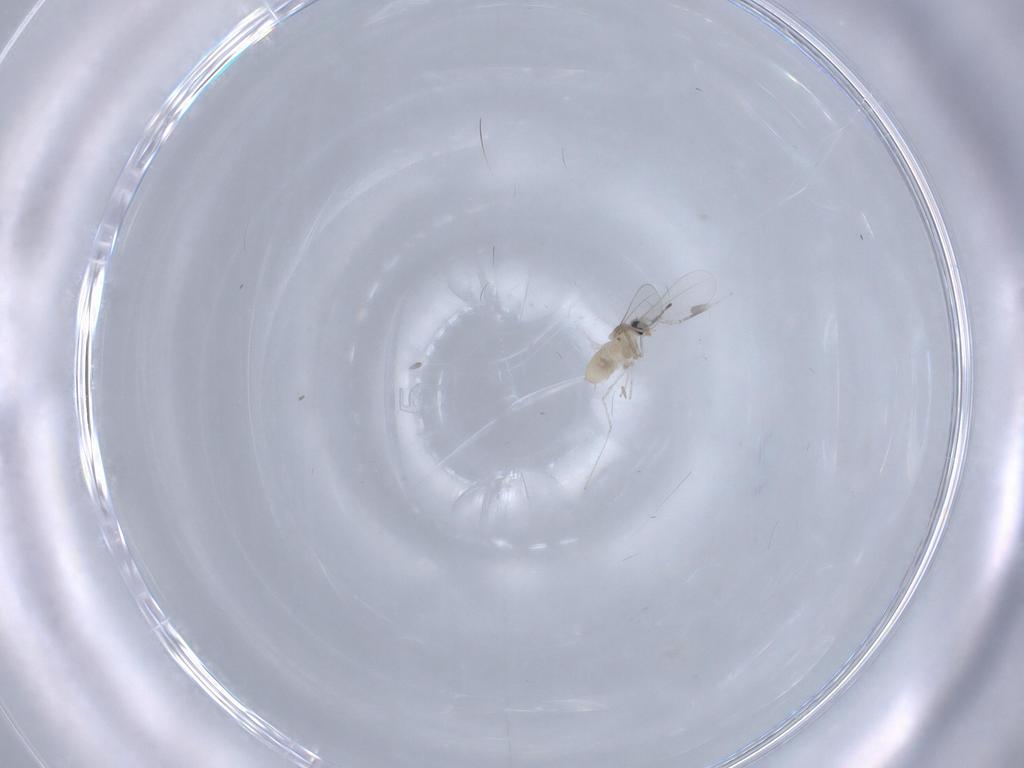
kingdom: Animalia
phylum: Arthropoda
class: Insecta
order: Diptera
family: Cecidomyiidae
